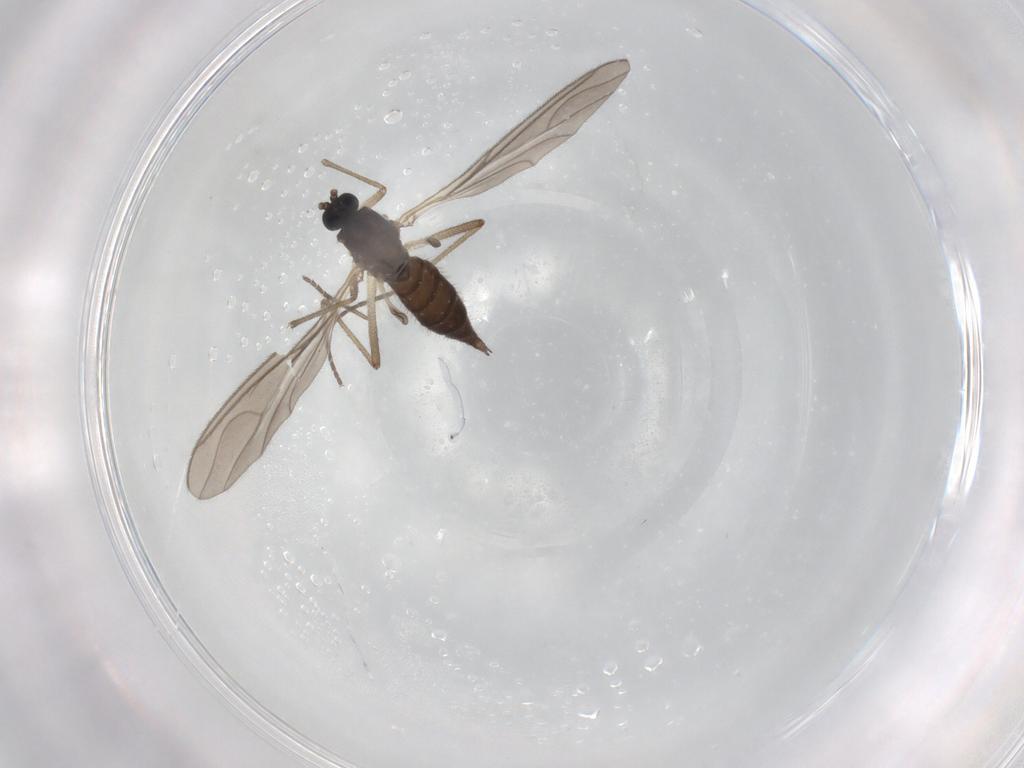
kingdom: Animalia
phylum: Arthropoda
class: Insecta
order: Diptera
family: Sciaridae
